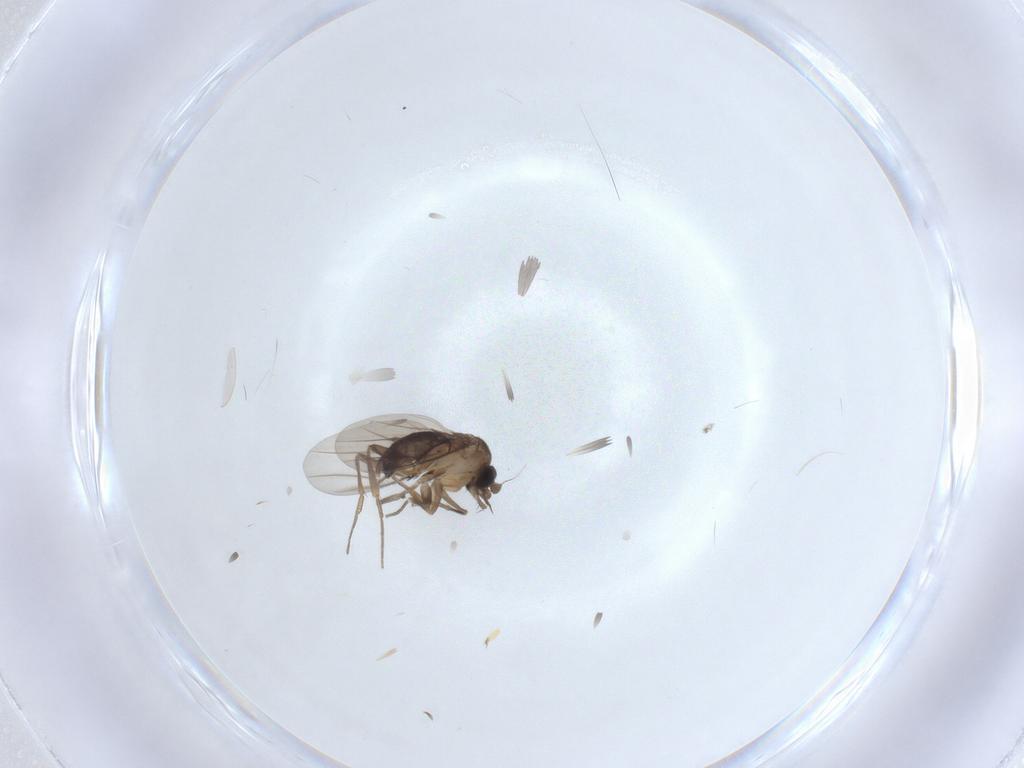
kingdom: Animalia
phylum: Arthropoda
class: Insecta
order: Diptera
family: Phoridae
